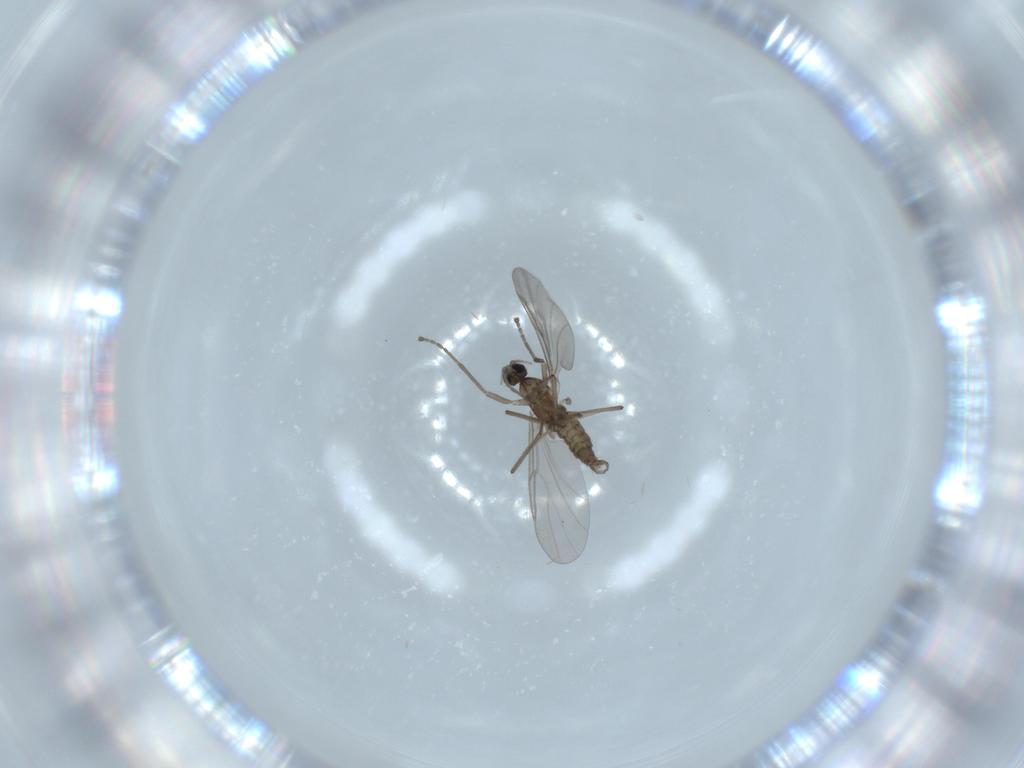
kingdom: Animalia
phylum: Arthropoda
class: Insecta
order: Diptera
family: Cecidomyiidae
